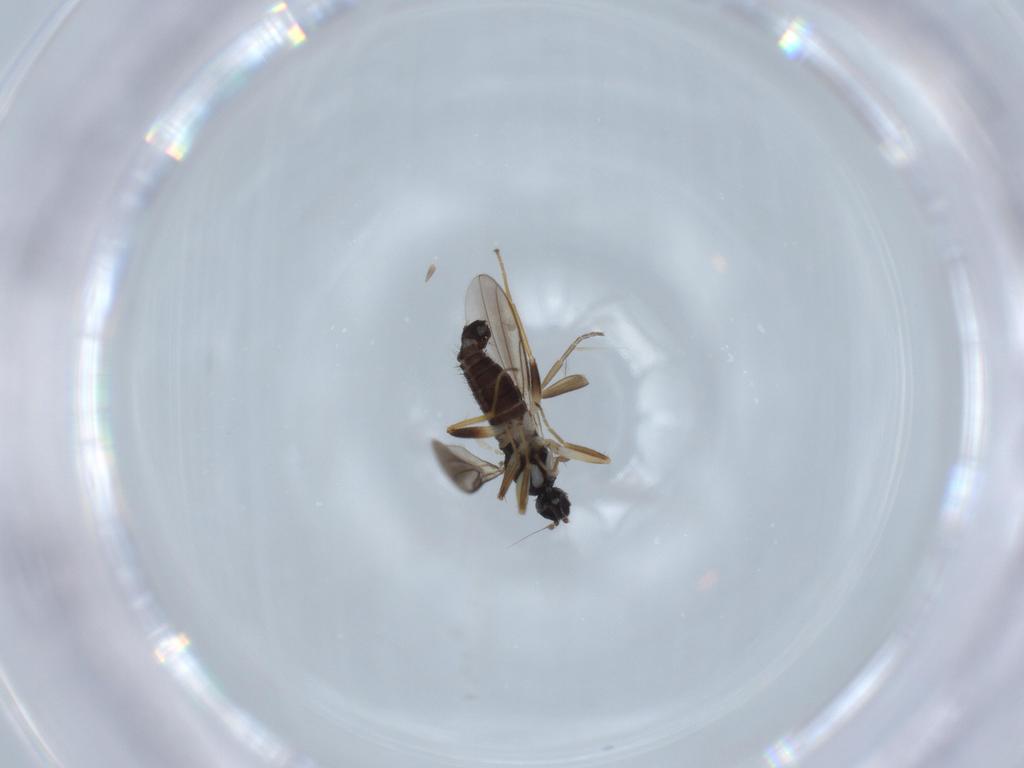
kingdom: Animalia
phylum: Arthropoda
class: Insecta
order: Diptera
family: Hybotidae
